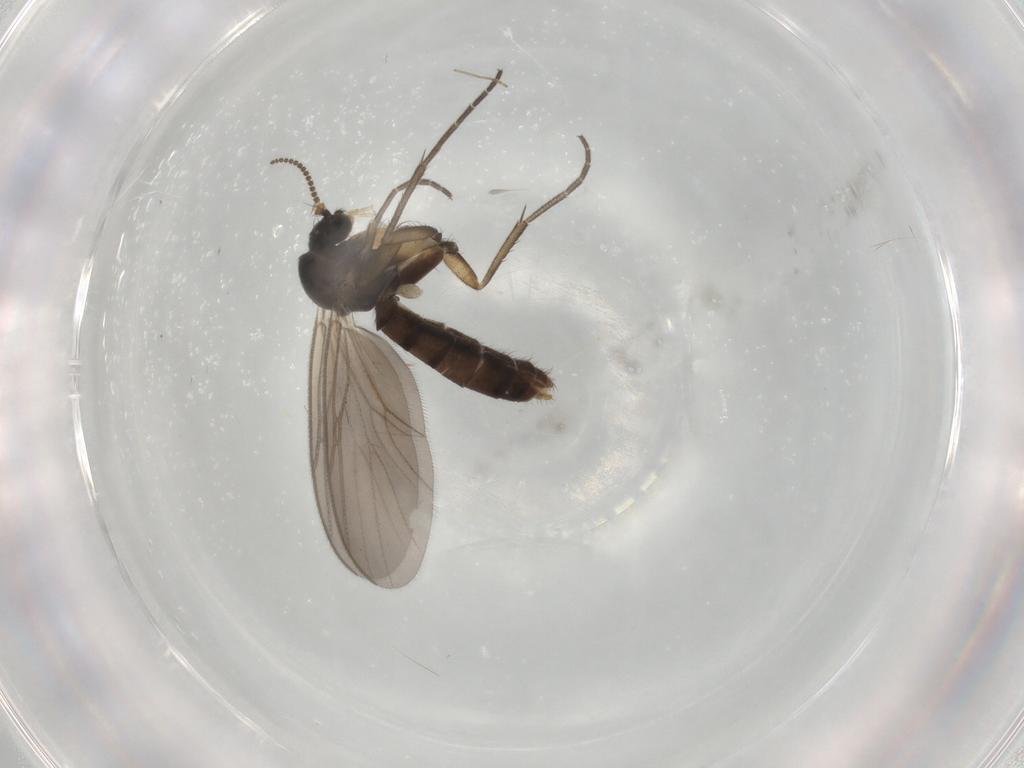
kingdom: Animalia
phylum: Arthropoda
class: Insecta
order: Diptera
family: Mycetophilidae
